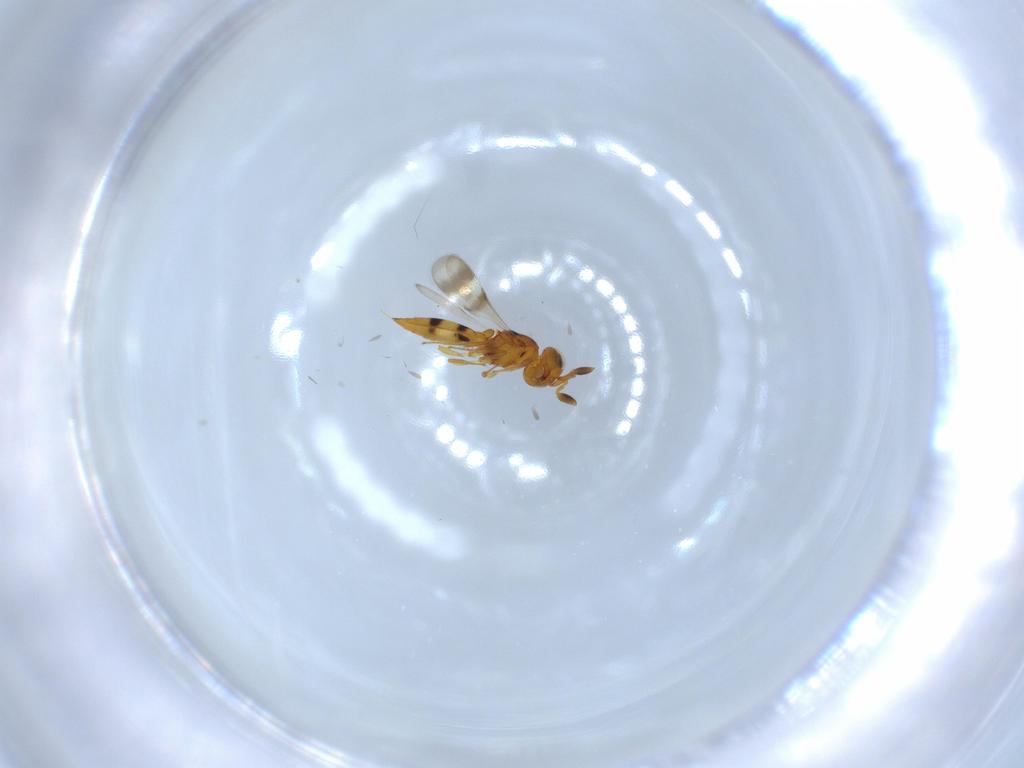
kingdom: Animalia
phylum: Arthropoda
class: Insecta
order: Hymenoptera
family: Scelionidae
